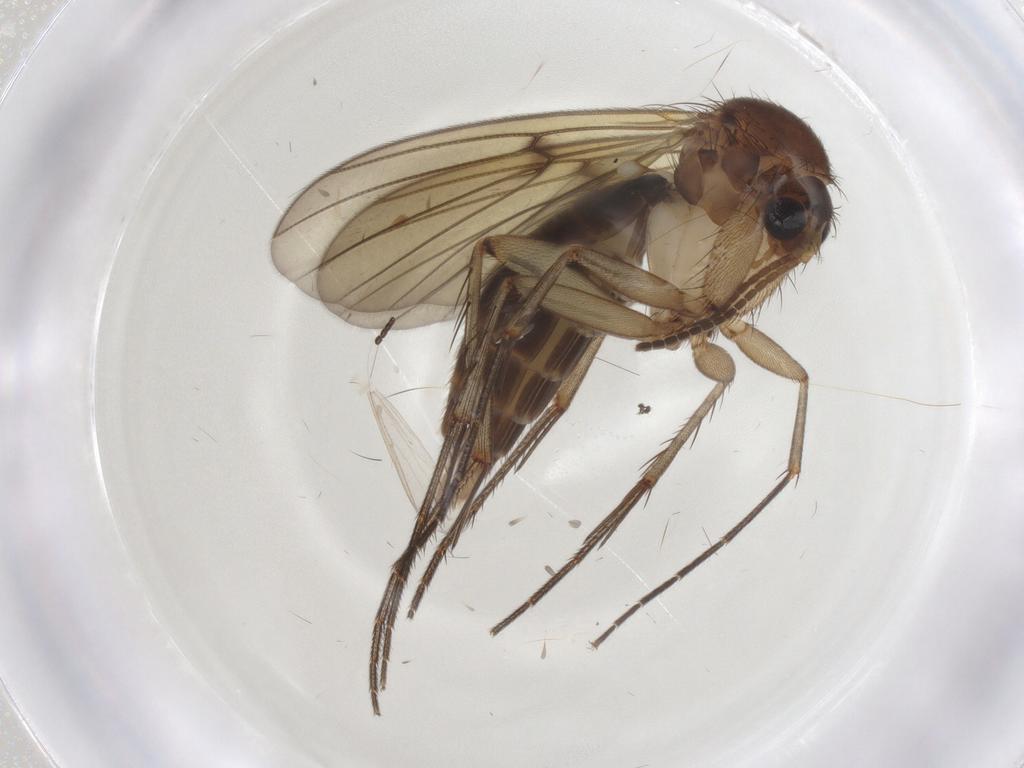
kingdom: Animalia
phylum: Arthropoda
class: Insecta
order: Diptera
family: Mycetophilidae
